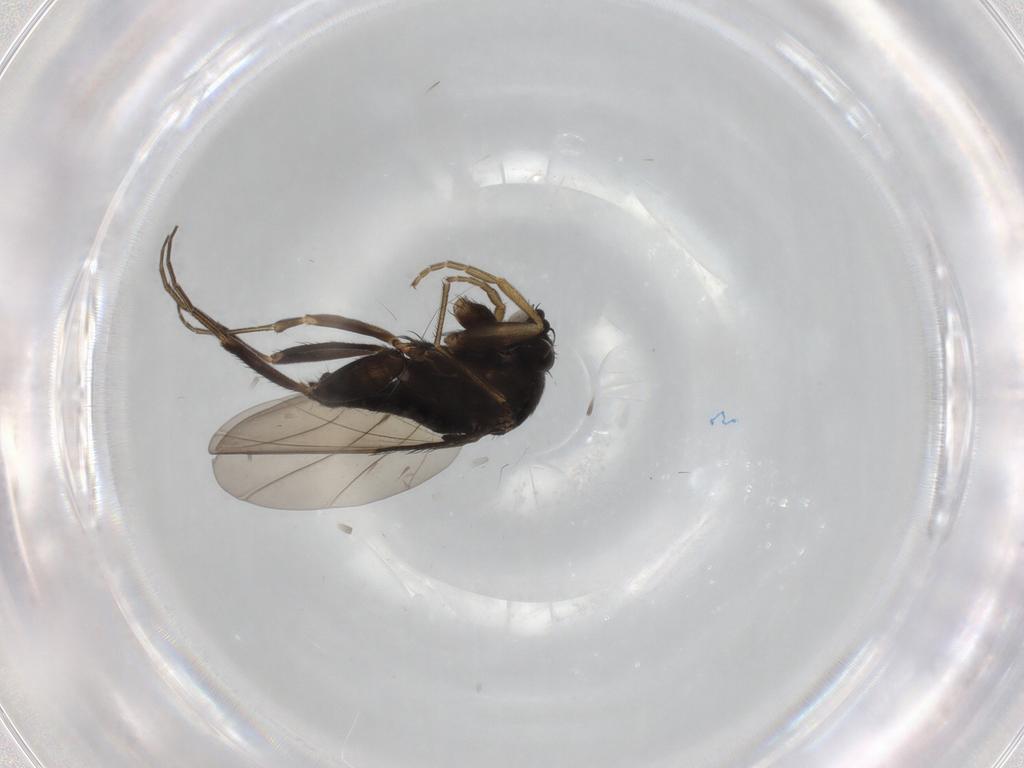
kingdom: Animalia
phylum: Arthropoda
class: Insecta
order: Diptera
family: Phoridae
